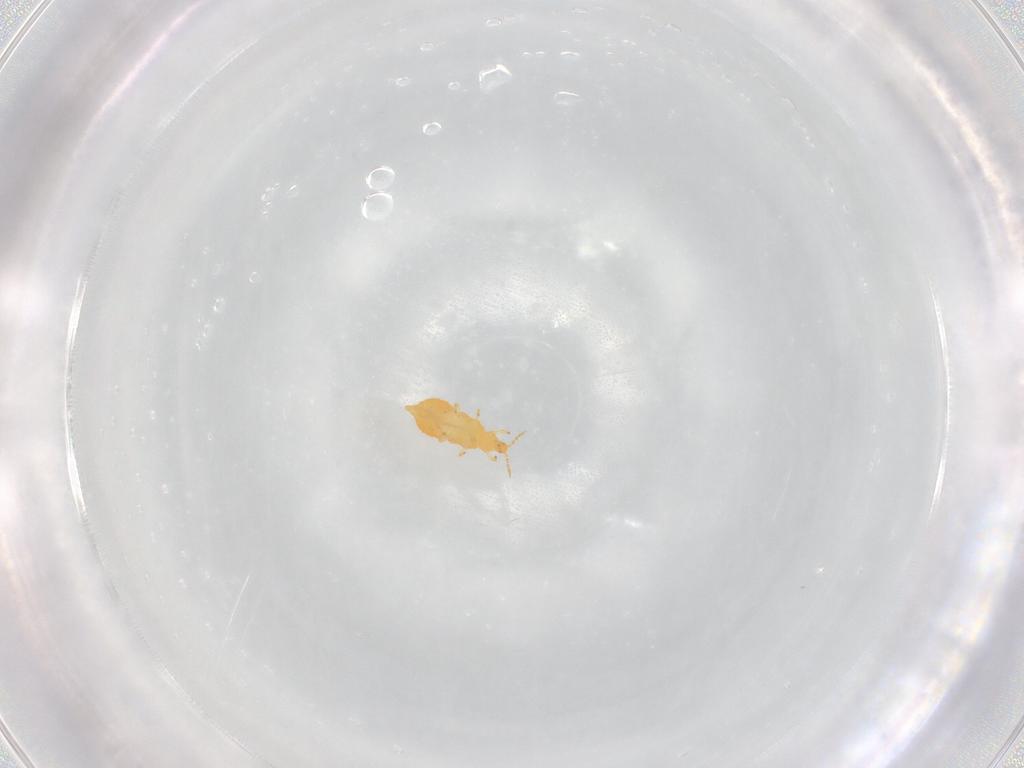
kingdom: Animalia
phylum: Arthropoda
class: Insecta
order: Thysanoptera
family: Heterothripidae
